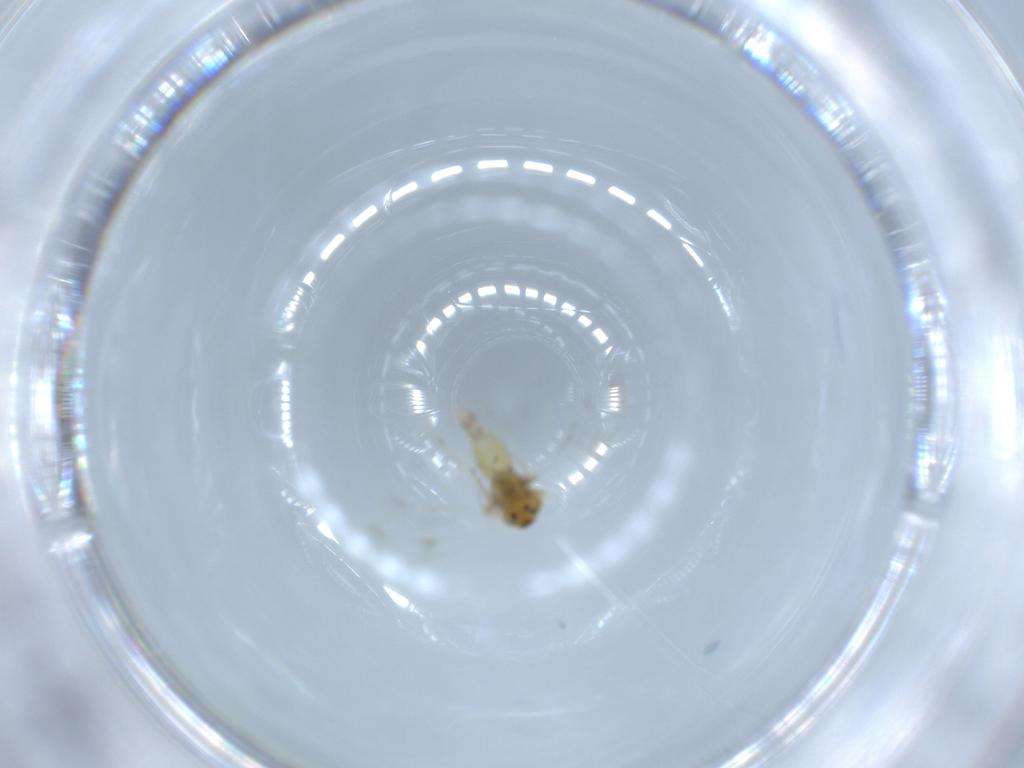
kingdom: Animalia
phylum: Arthropoda
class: Insecta
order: Hemiptera
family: Aleyrodidae
